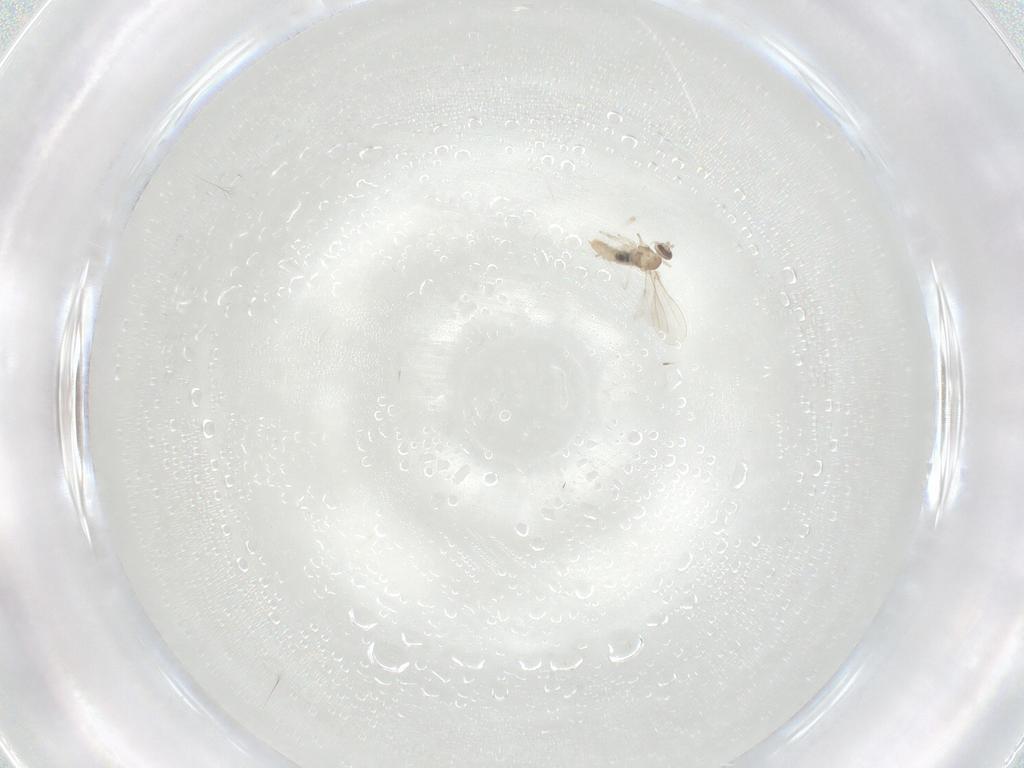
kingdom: Animalia
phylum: Arthropoda
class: Insecta
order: Diptera
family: Cecidomyiidae
